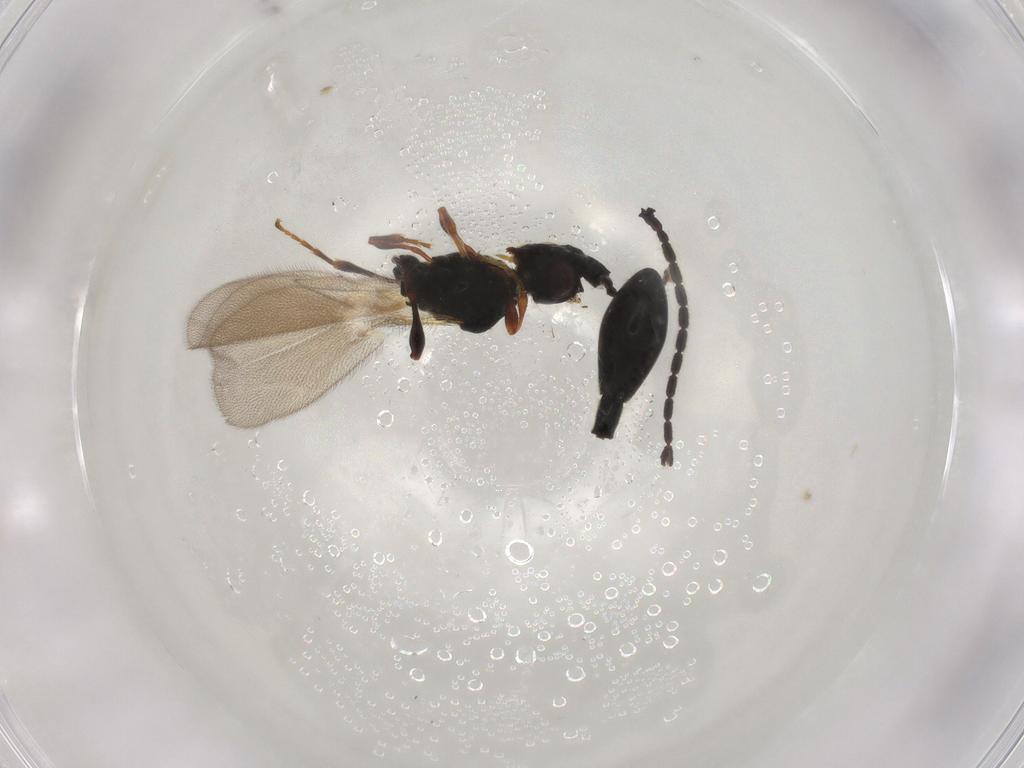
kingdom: Animalia
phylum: Arthropoda
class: Insecta
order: Hymenoptera
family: Diapriidae
